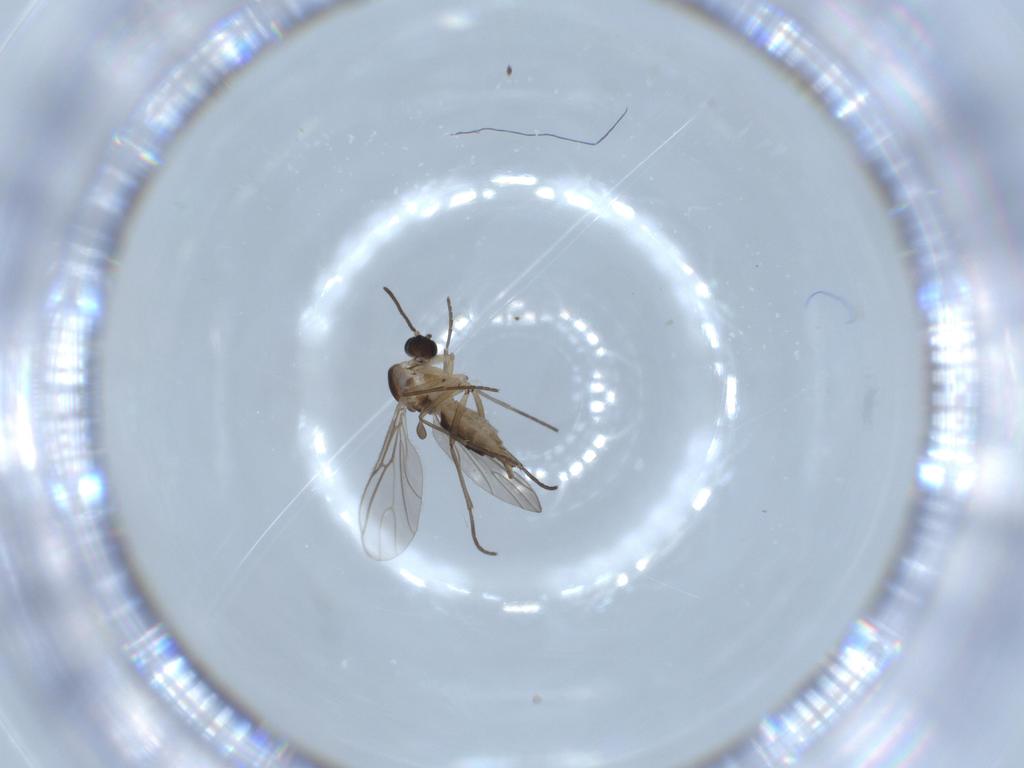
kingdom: Animalia
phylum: Arthropoda
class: Insecta
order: Diptera
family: Sciaridae
